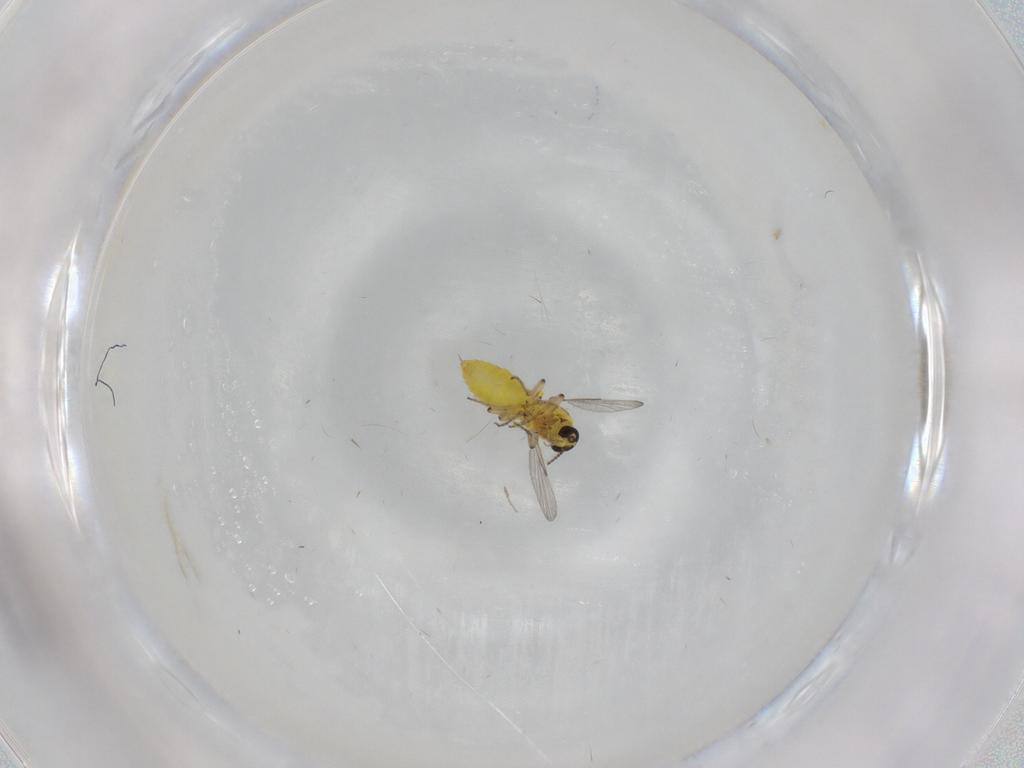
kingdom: Animalia
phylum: Arthropoda
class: Insecta
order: Diptera
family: Ceratopogonidae
